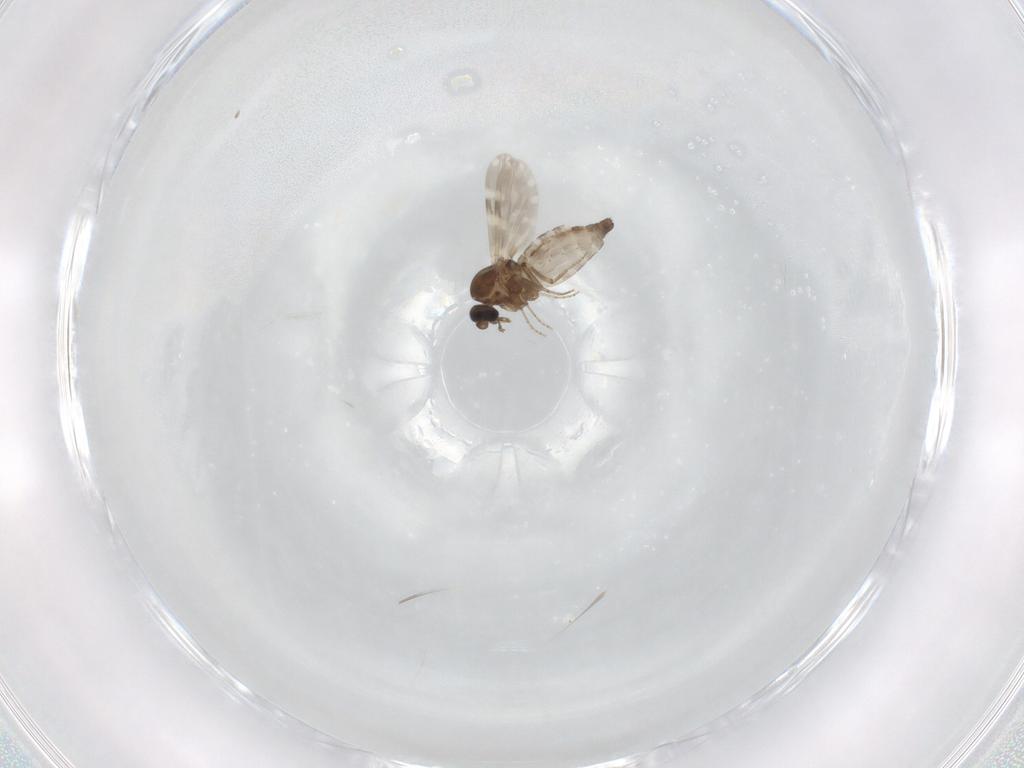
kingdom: Animalia
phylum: Arthropoda
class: Insecta
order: Diptera
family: Ceratopogonidae
